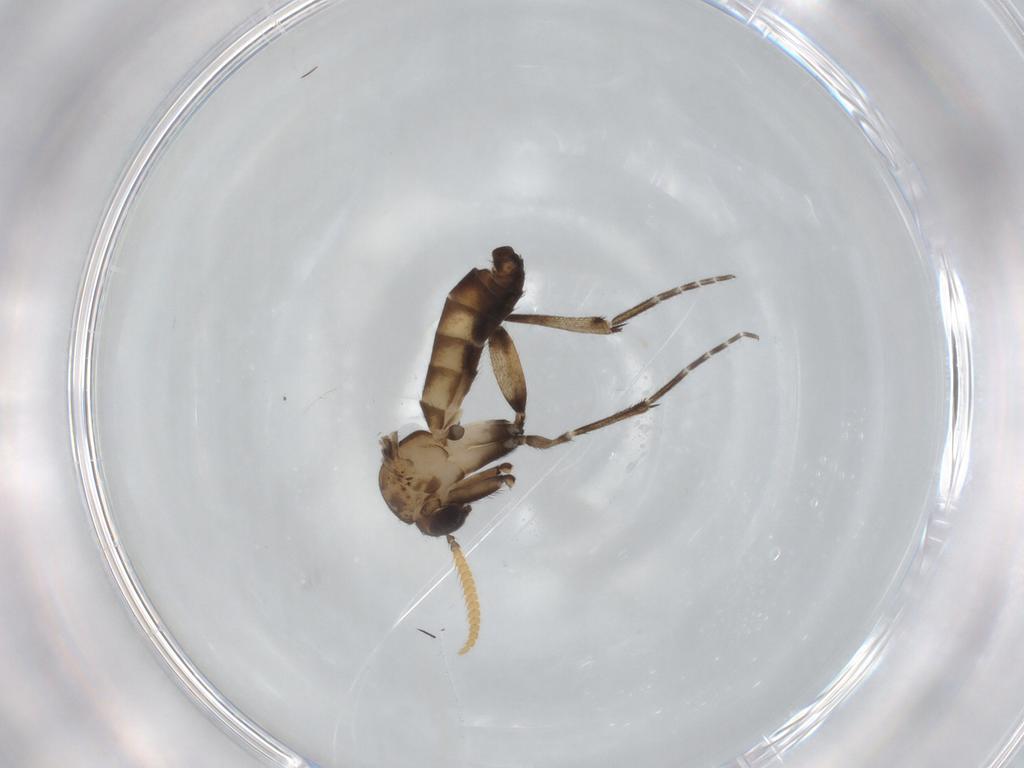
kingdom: Animalia
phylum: Arthropoda
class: Insecta
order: Diptera
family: Mycetophilidae
